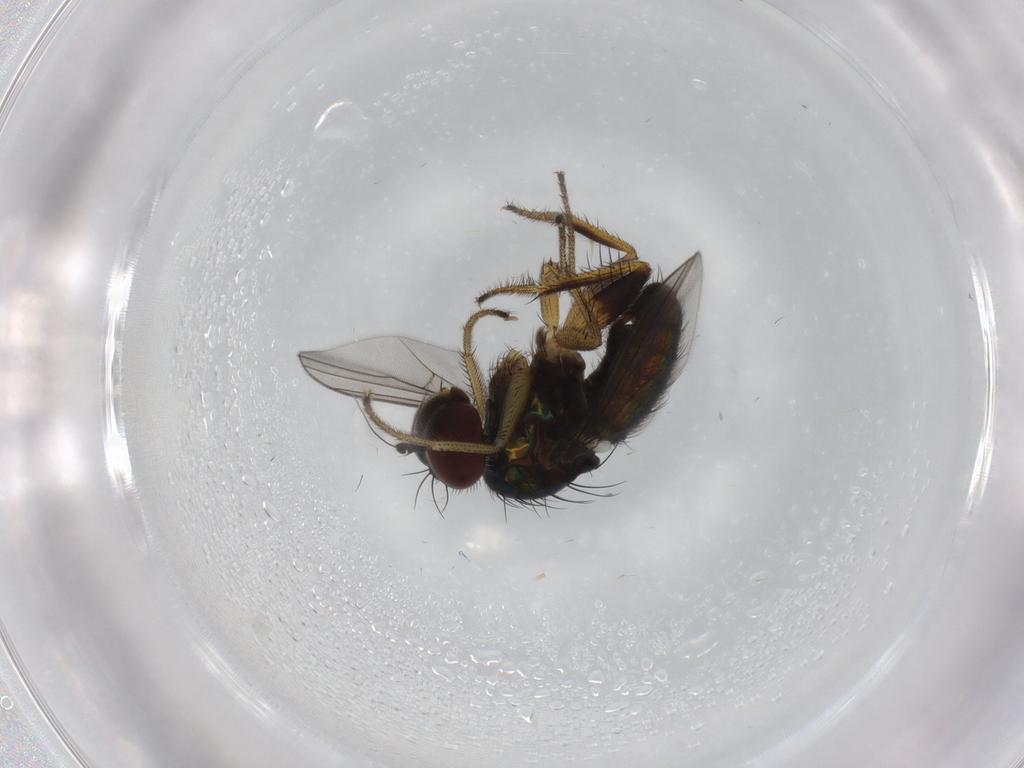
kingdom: Animalia
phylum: Arthropoda
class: Insecta
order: Diptera
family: Dolichopodidae
